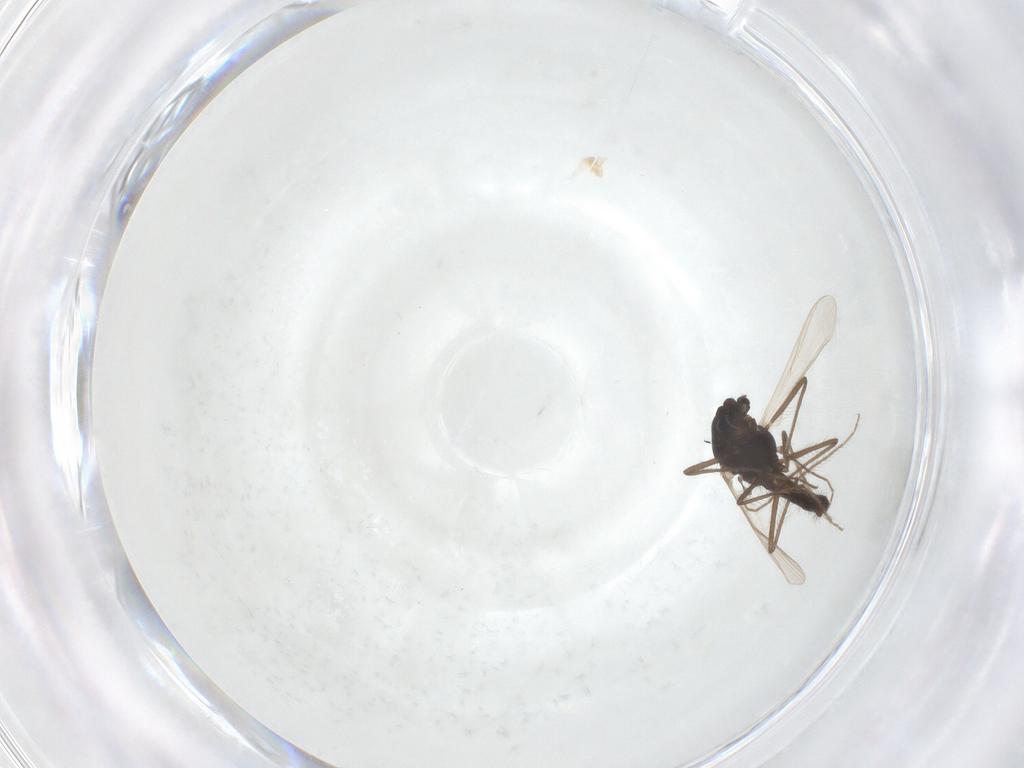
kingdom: Animalia
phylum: Arthropoda
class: Insecta
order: Diptera
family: Chironomidae
